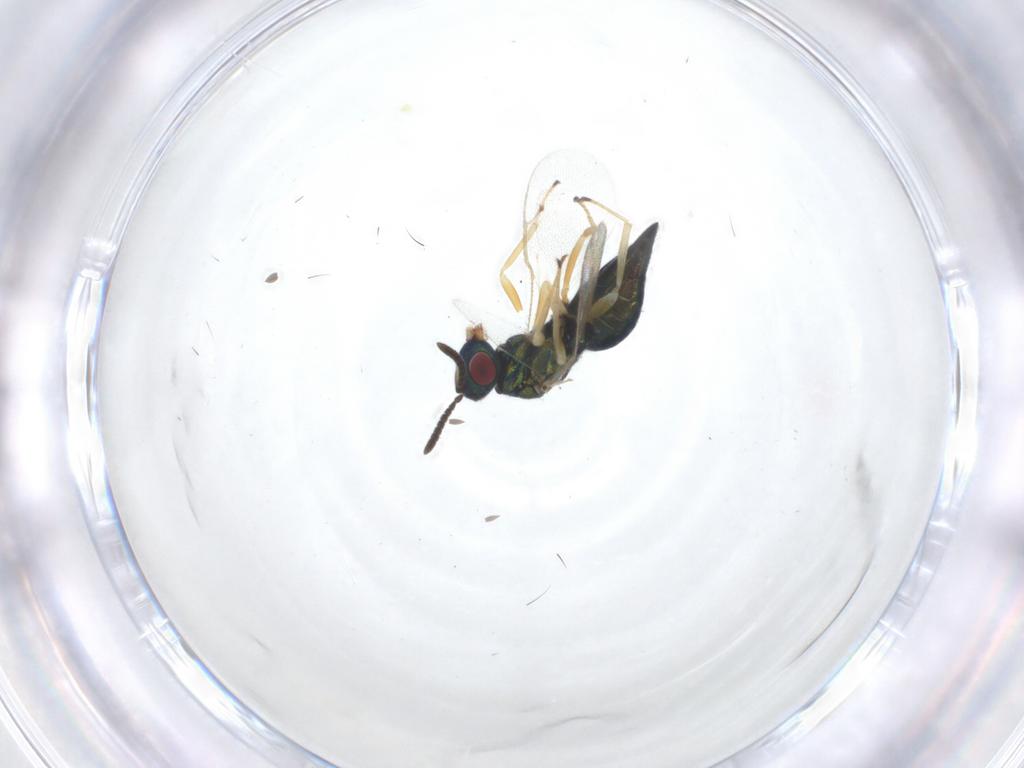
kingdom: Animalia
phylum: Arthropoda
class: Insecta
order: Hymenoptera
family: Pteromalidae
